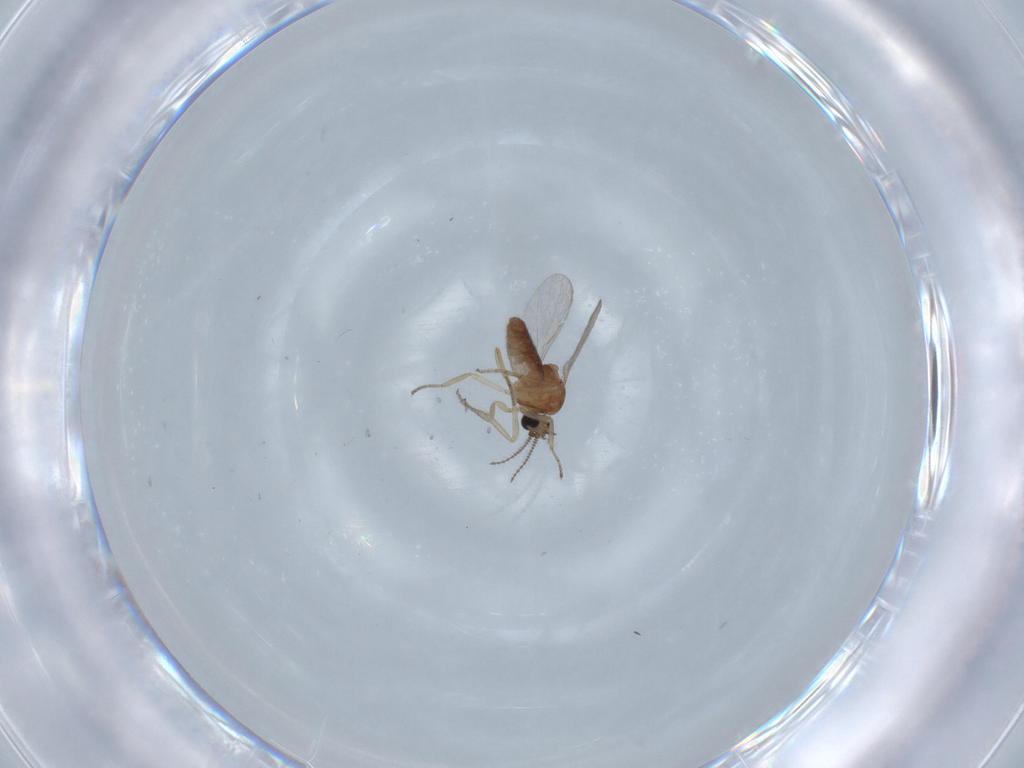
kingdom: Animalia
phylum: Arthropoda
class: Insecta
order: Diptera
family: Ceratopogonidae
